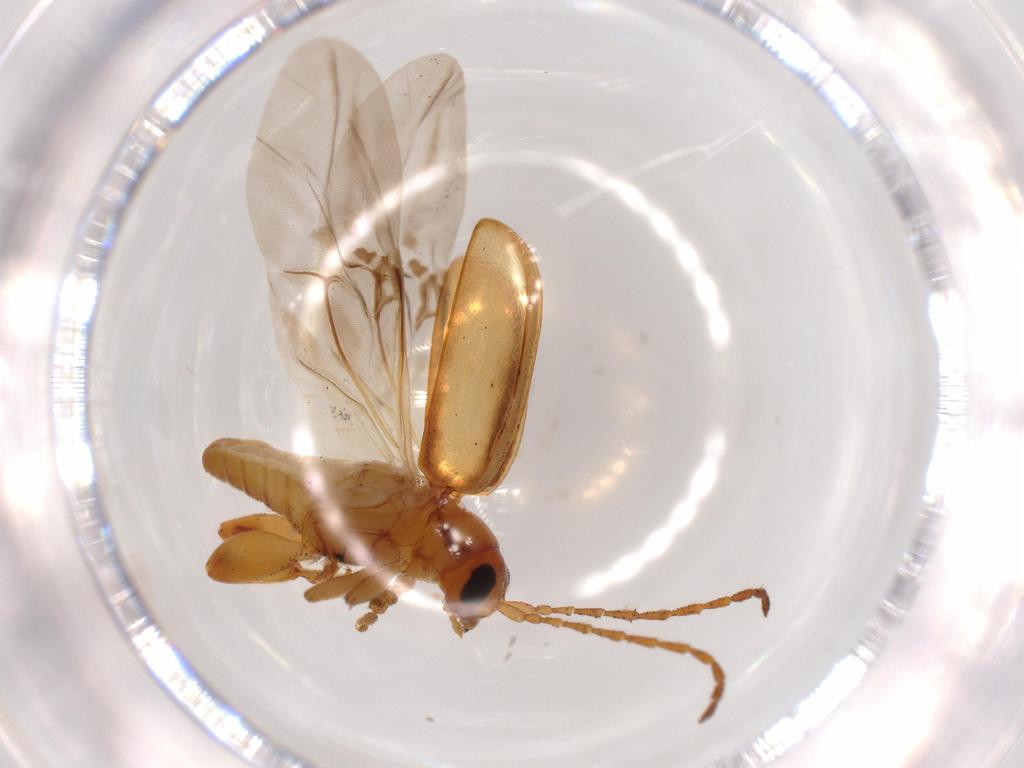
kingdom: Animalia
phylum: Arthropoda
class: Insecta
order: Coleoptera
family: Chrysomelidae
